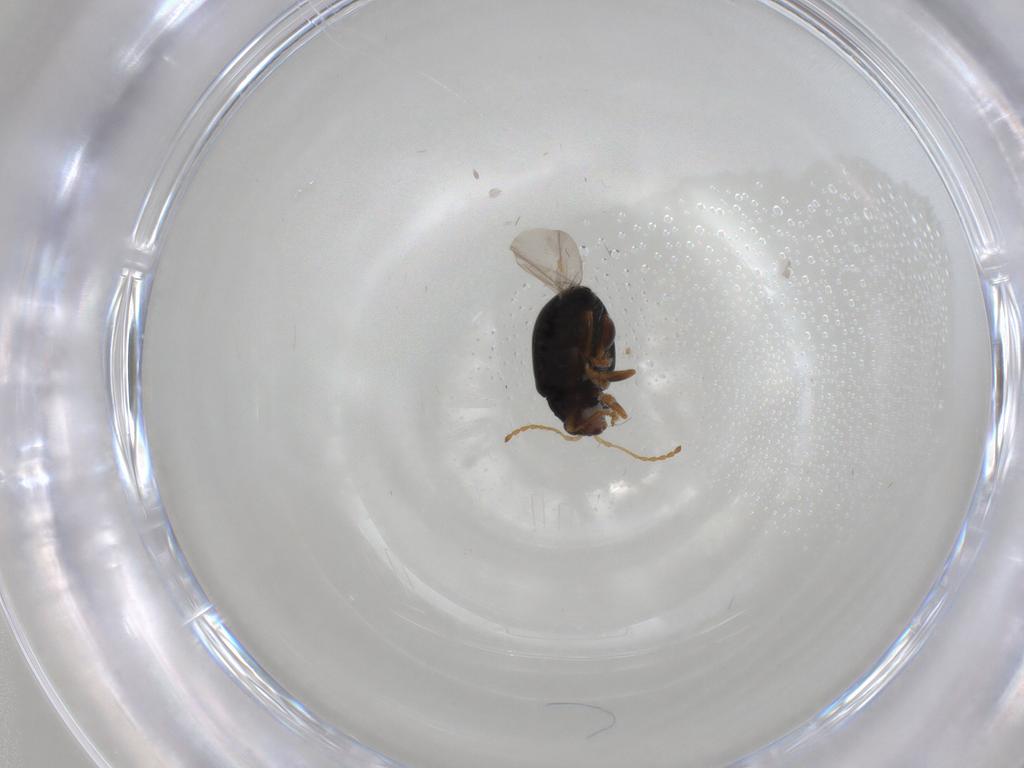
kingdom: Animalia
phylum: Arthropoda
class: Insecta
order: Coleoptera
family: Chrysomelidae
